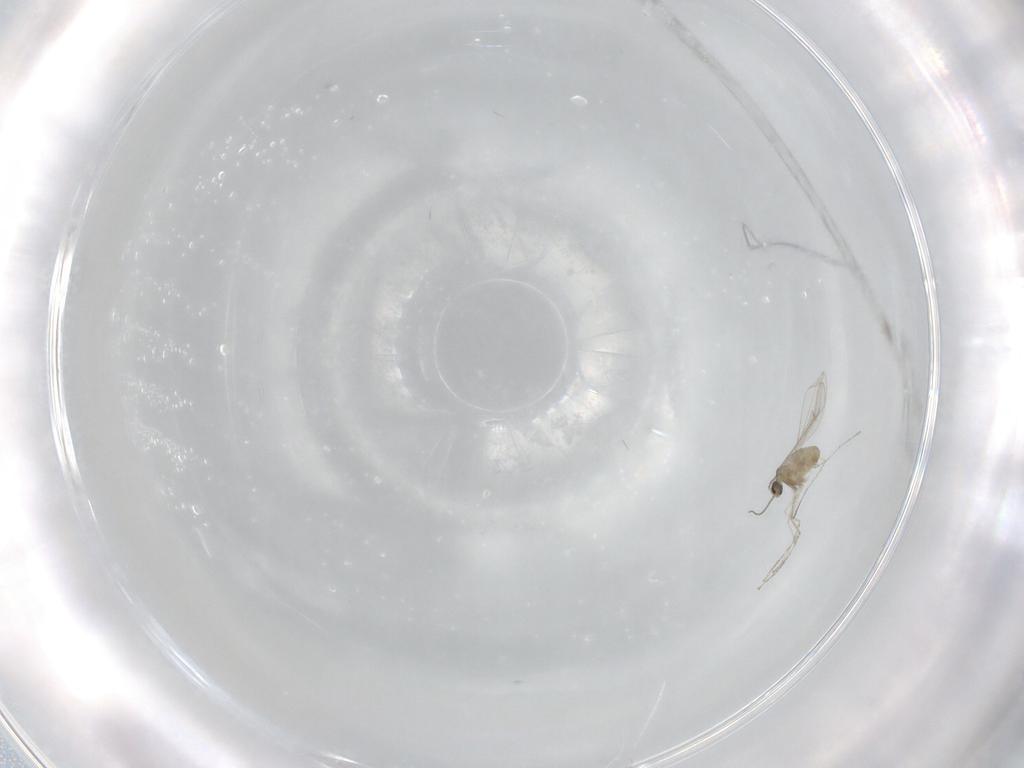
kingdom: Animalia
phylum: Arthropoda
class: Insecta
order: Diptera
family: Cecidomyiidae
